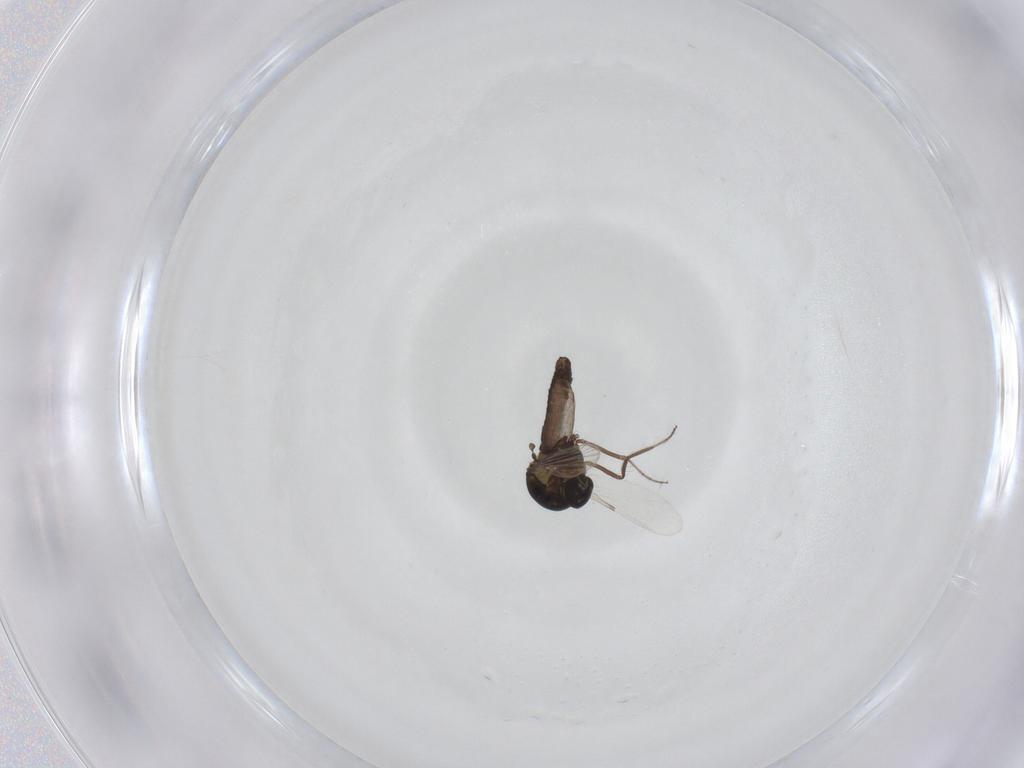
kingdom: Animalia
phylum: Arthropoda
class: Insecta
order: Diptera
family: Ceratopogonidae
